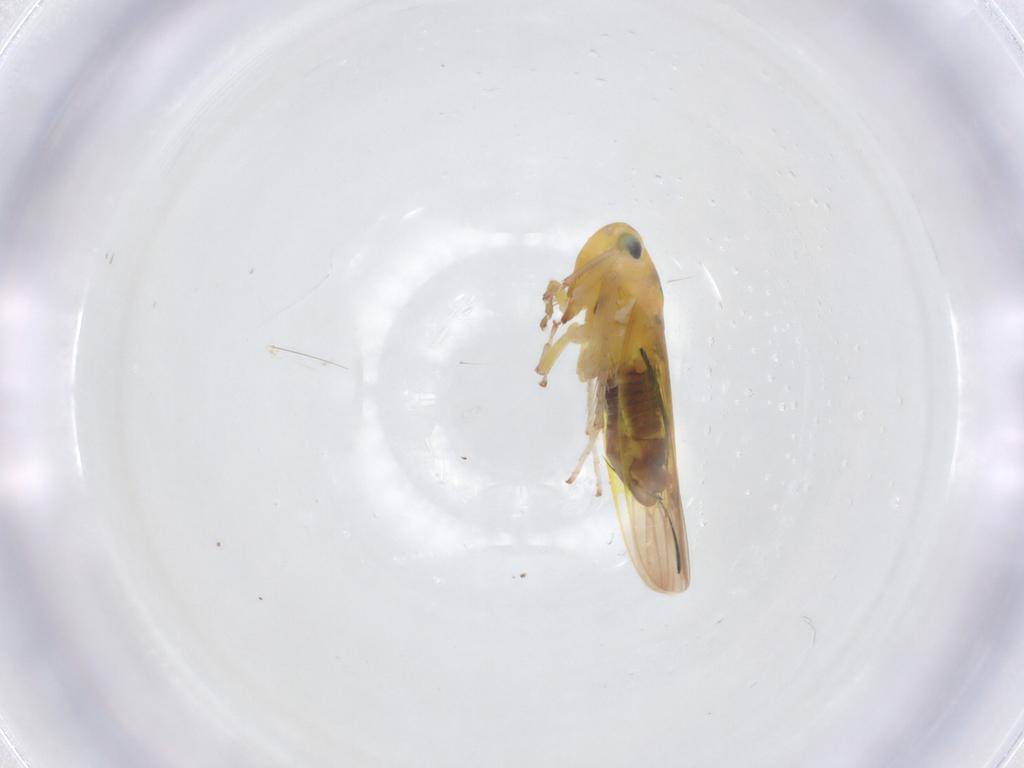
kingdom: Animalia
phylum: Arthropoda
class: Insecta
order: Hemiptera
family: Cicadellidae
